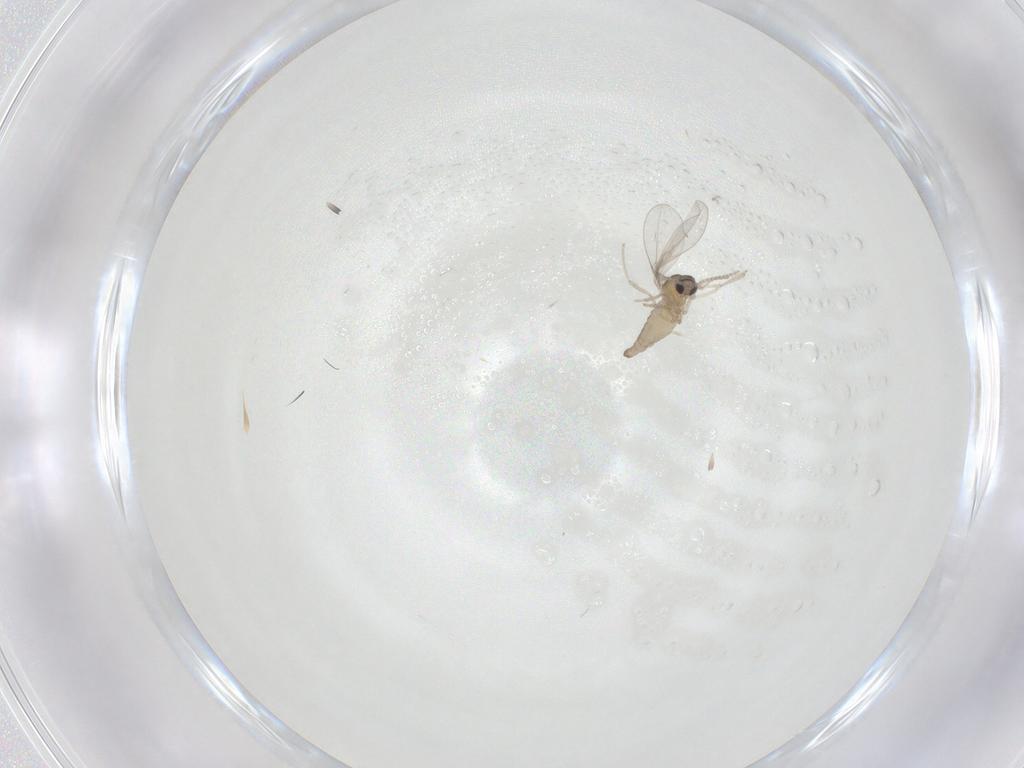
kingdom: Animalia
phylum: Arthropoda
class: Insecta
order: Diptera
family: Cecidomyiidae
